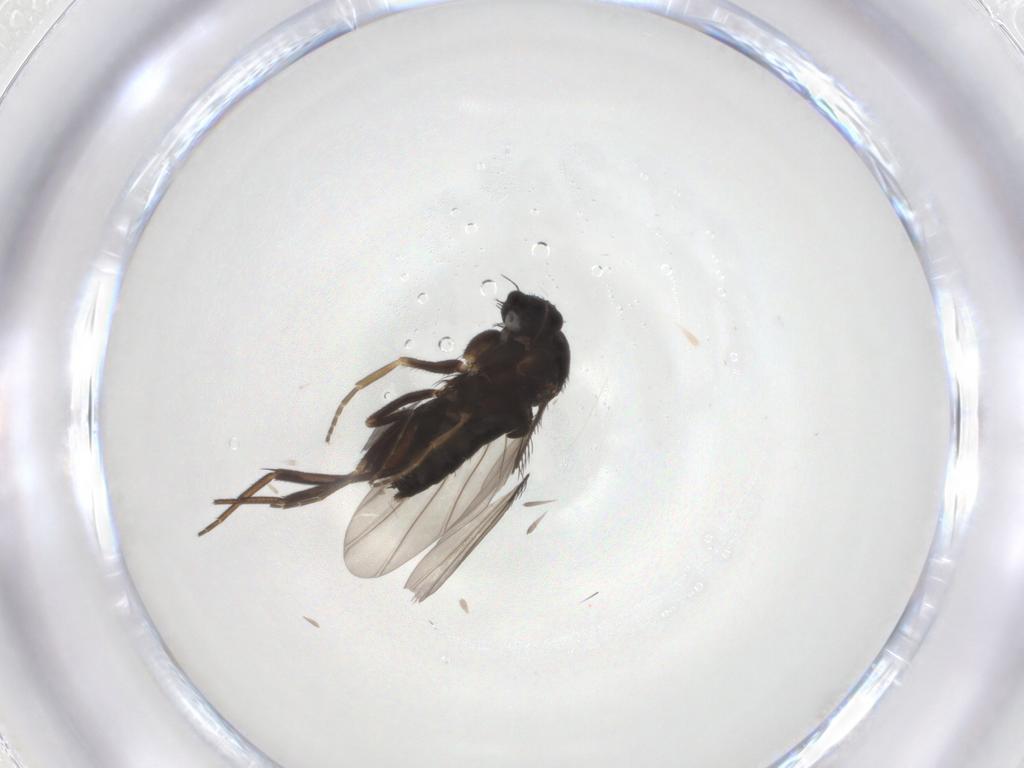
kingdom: Animalia
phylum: Arthropoda
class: Insecta
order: Diptera
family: Phoridae
